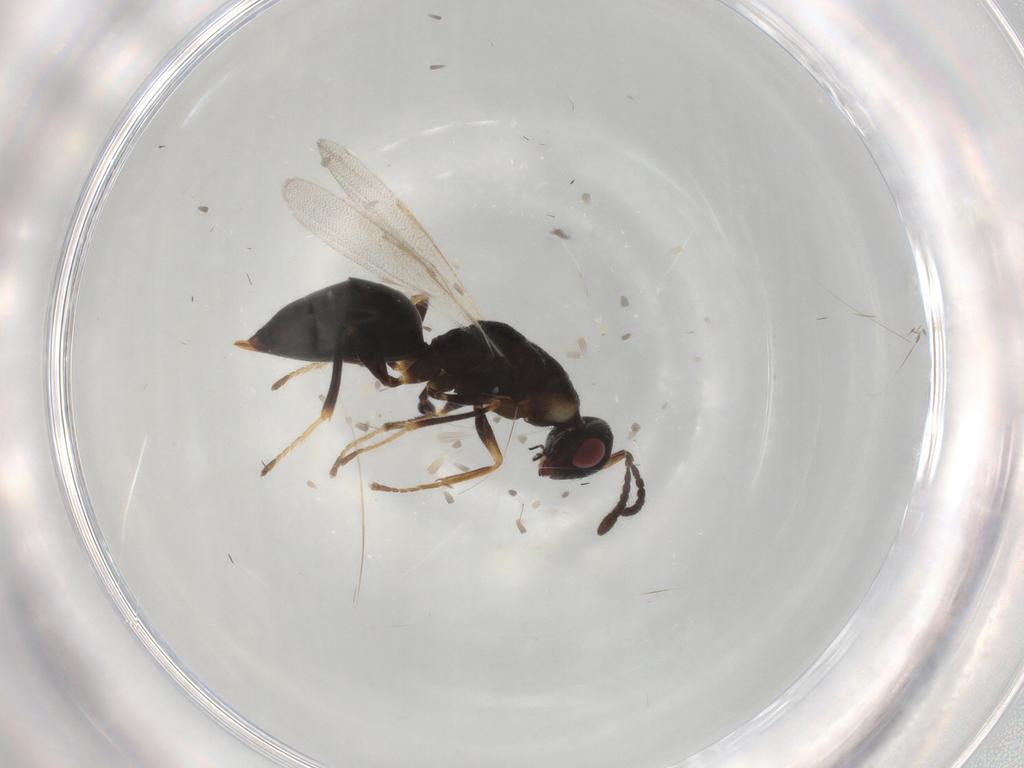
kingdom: Animalia
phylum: Arthropoda
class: Insecta
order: Hymenoptera
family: Eurytomidae
